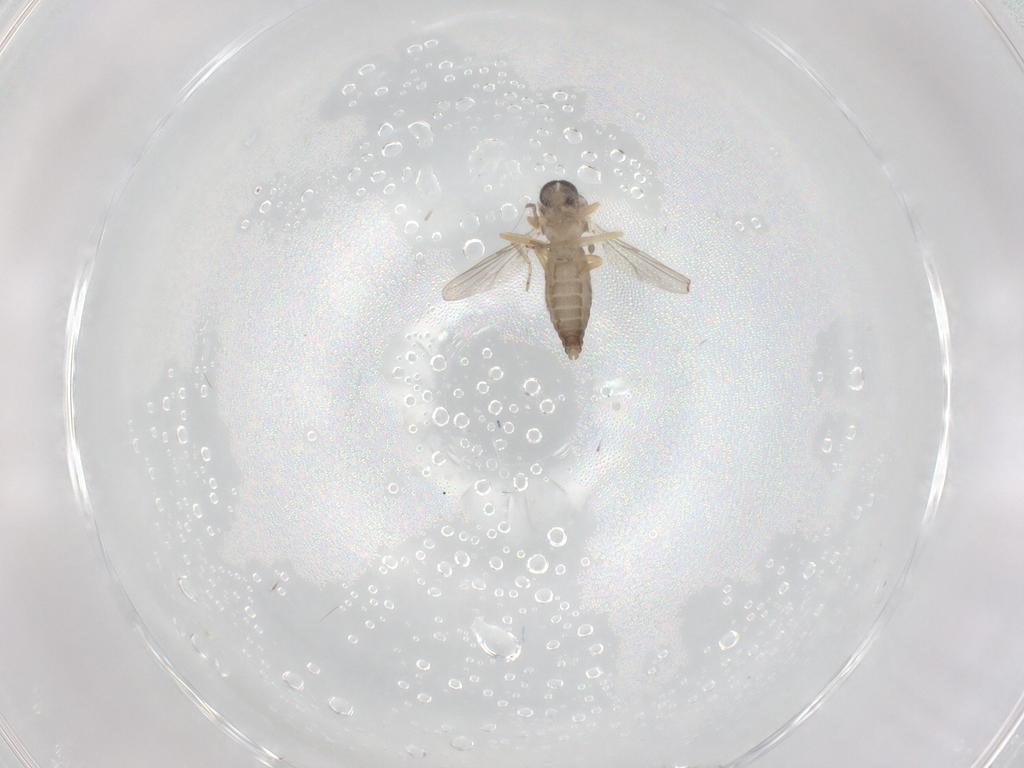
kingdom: Animalia
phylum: Arthropoda
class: Insecta
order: Diptera
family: Ceratopogonidae
